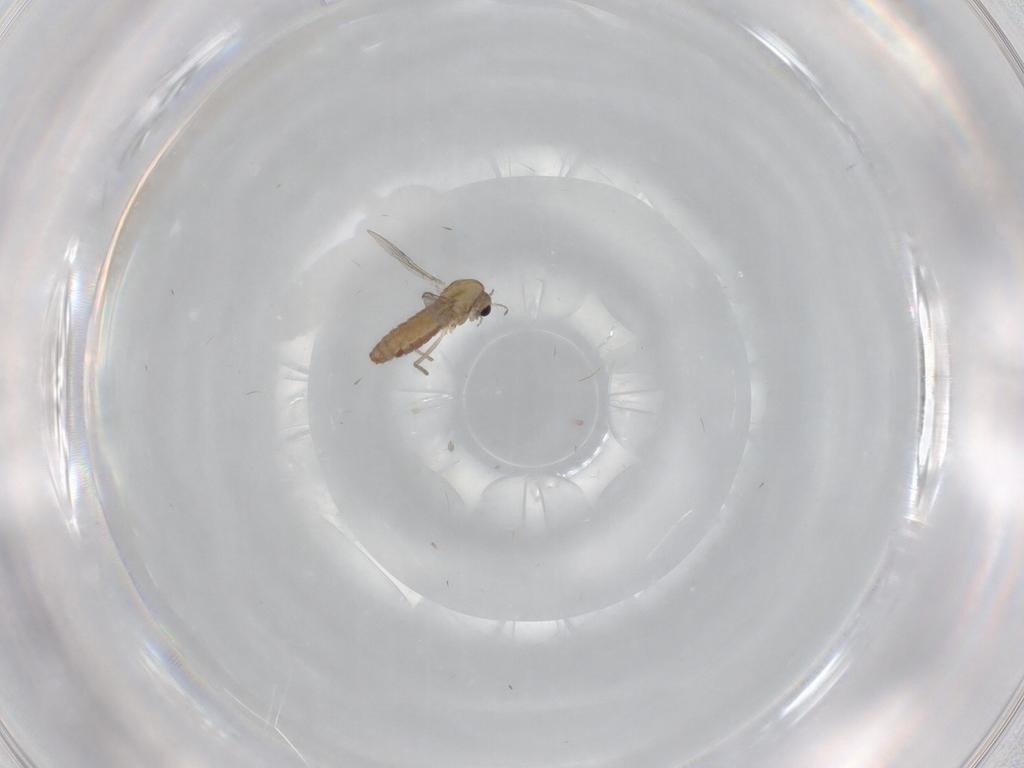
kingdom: Animalia
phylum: Arthropoda
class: Insecta
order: Diptera
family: Chironomidae
